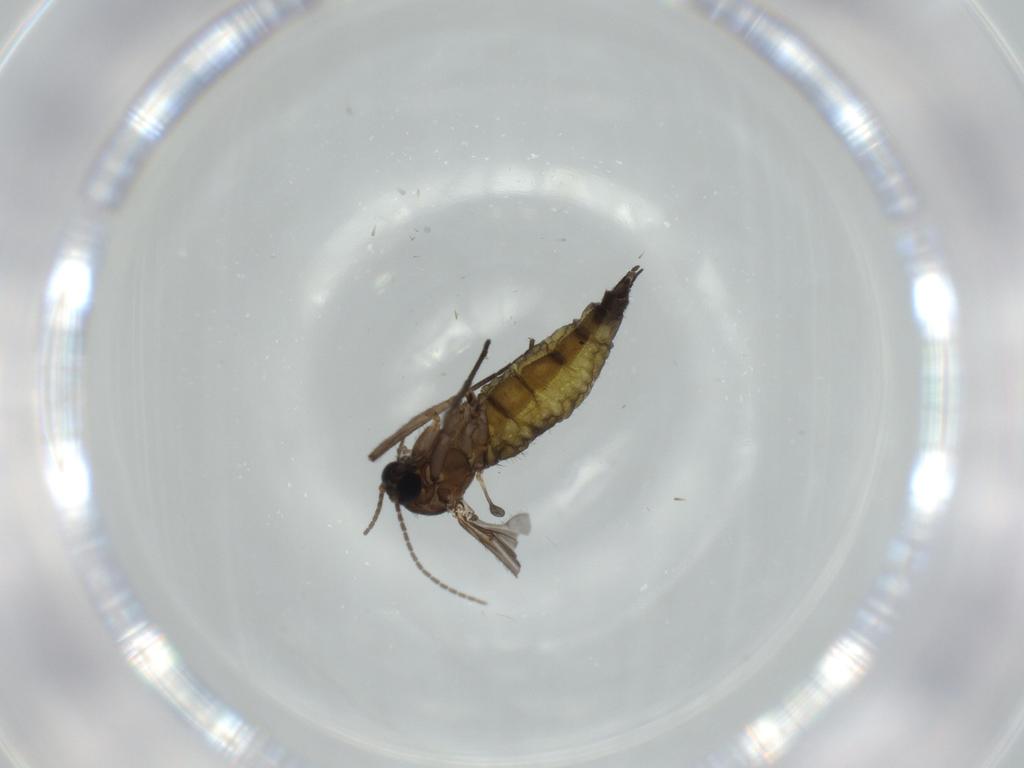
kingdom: Animalia
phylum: Arthropoda
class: Insecta
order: Diptera
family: Sciaridae
